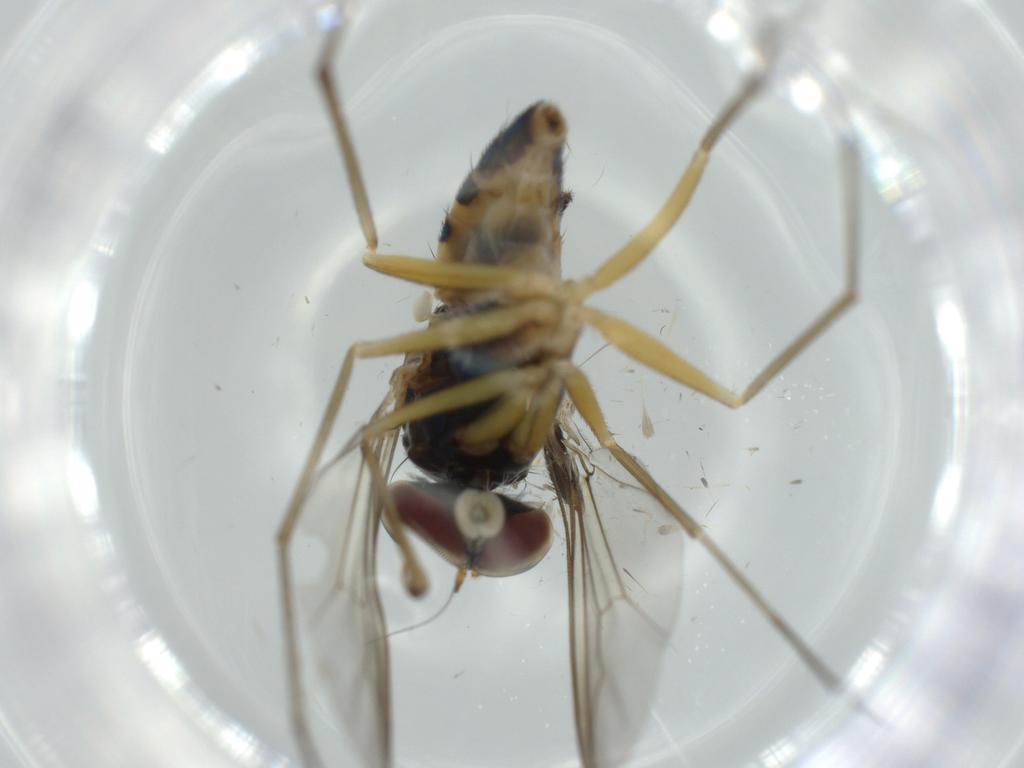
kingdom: Animalia
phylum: Arthropoda
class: Insecta
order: Diptera
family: Sciaridae
